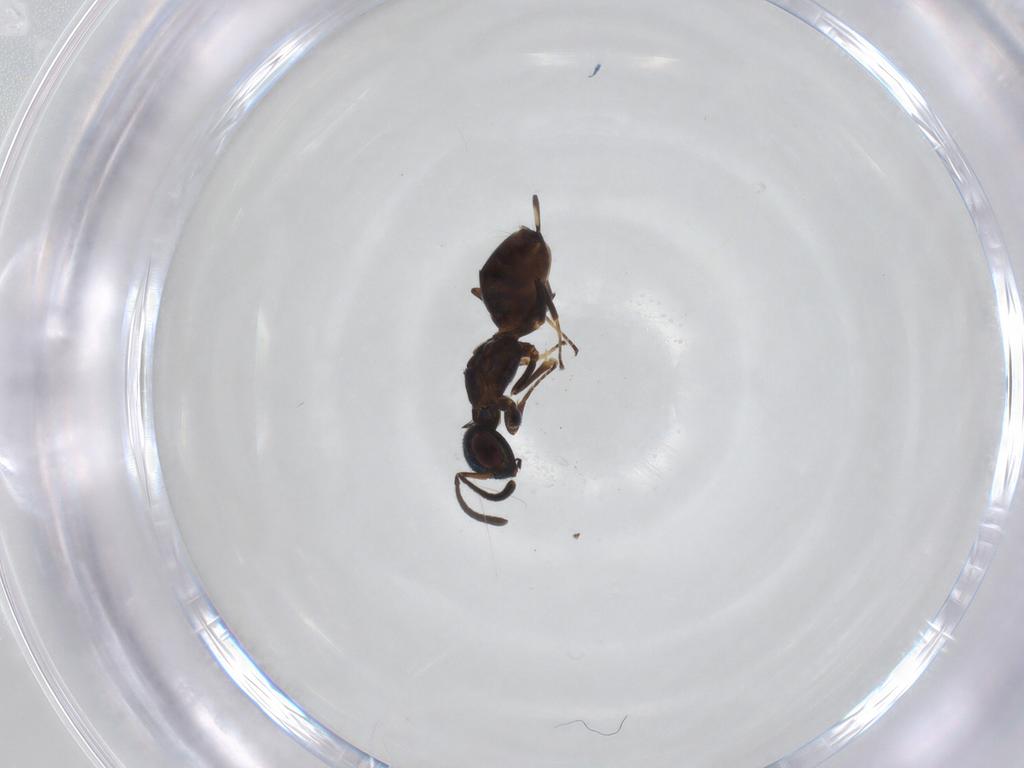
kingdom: Animalia
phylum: Arthropoda
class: Insecta
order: Hymenoptera
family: Eupelmidae
